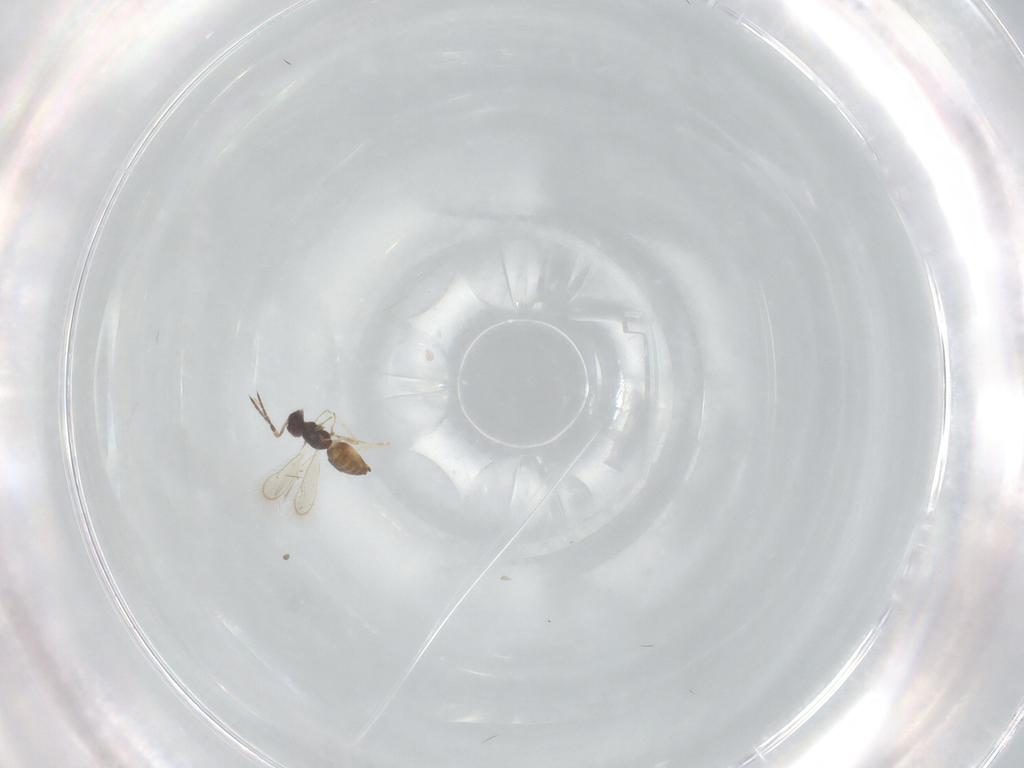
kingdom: Animalia
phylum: Arthropoda
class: Insecta
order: Hymenoptera
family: Eulophidae
